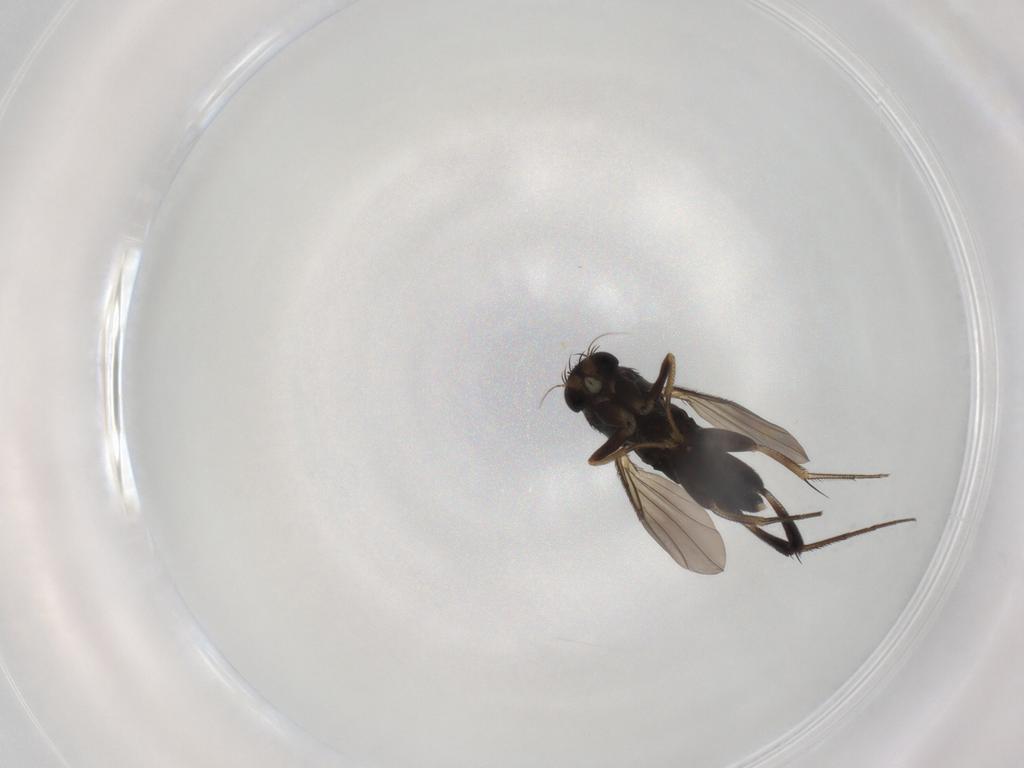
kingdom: Animalia
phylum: Arthropoda
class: Insecta
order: Diptera
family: Phoridae
